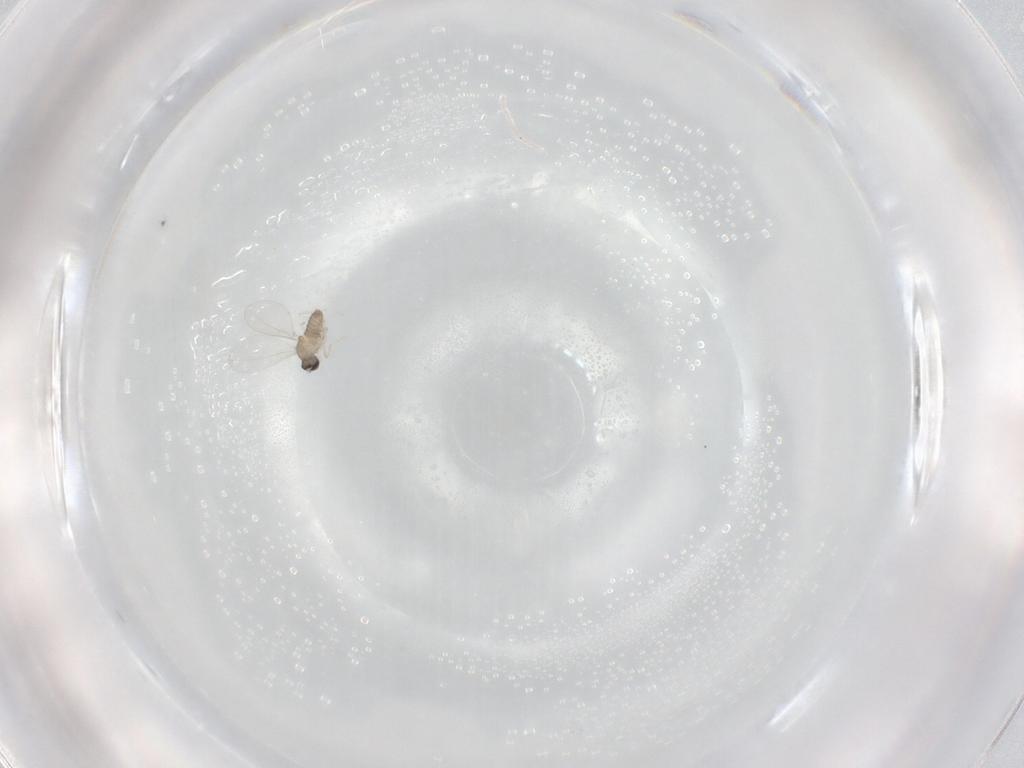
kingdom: Animalia
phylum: Arthropoda
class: Insecta
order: Diptera
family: Cecidomyiidae
